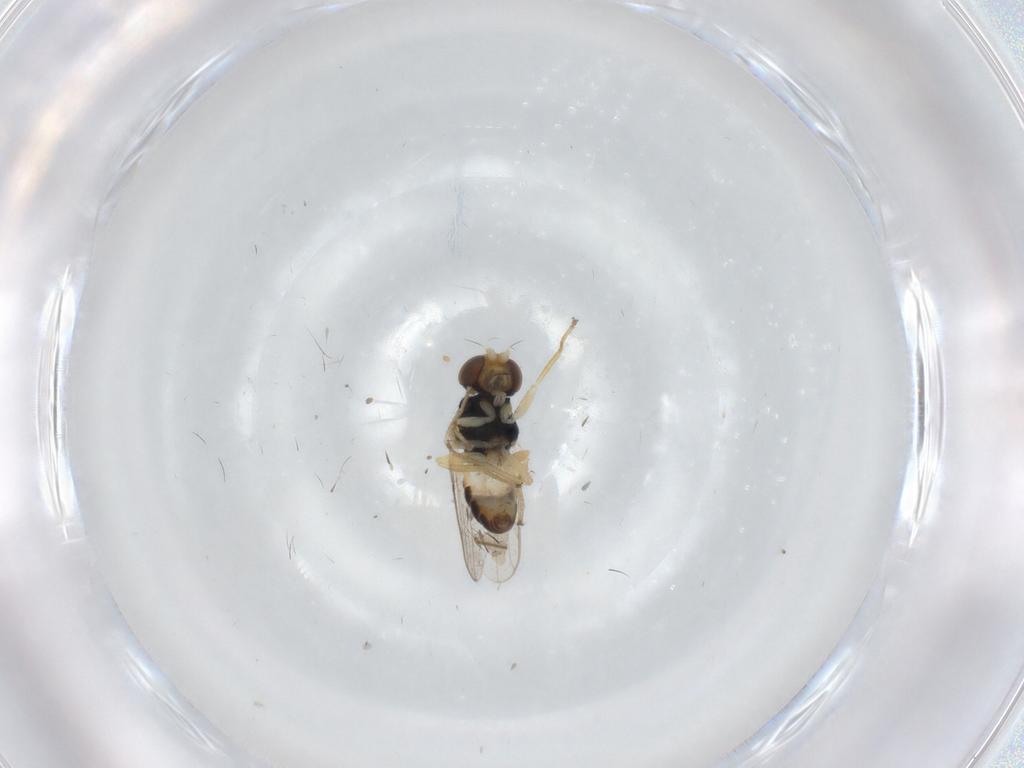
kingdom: Animalia
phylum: Arthropoda
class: Insecta
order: Diptera
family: Chloropidae
